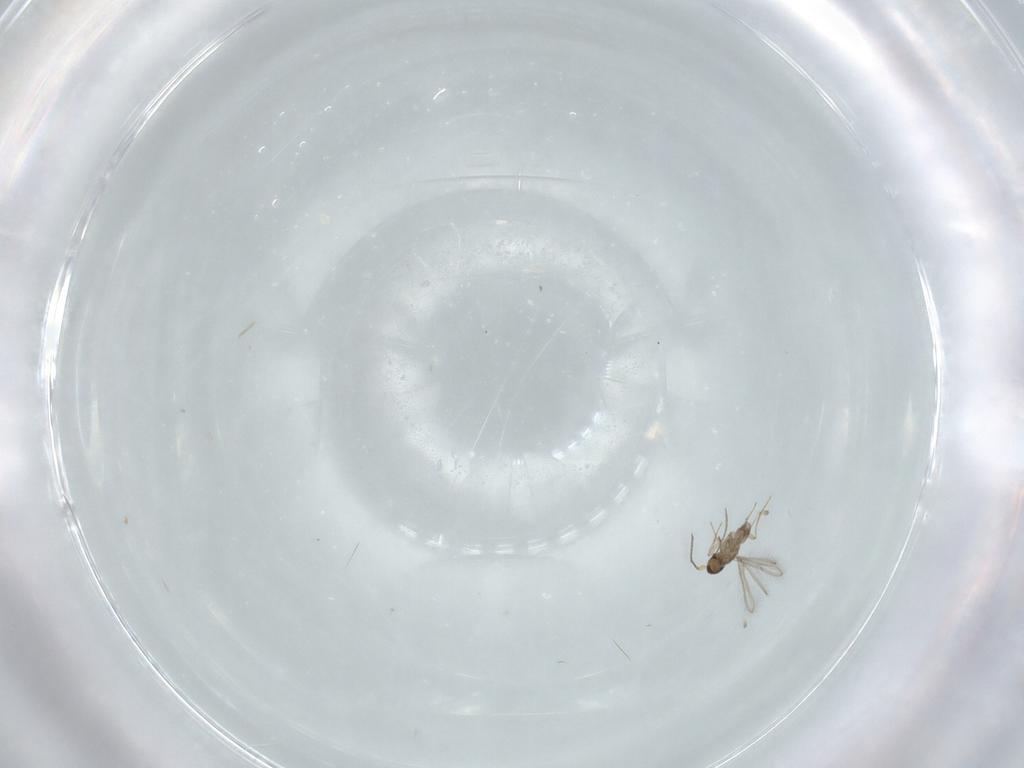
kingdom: Animalia
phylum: Arthropoda
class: Insecta
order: Hymenoptera
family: Mymaridae
